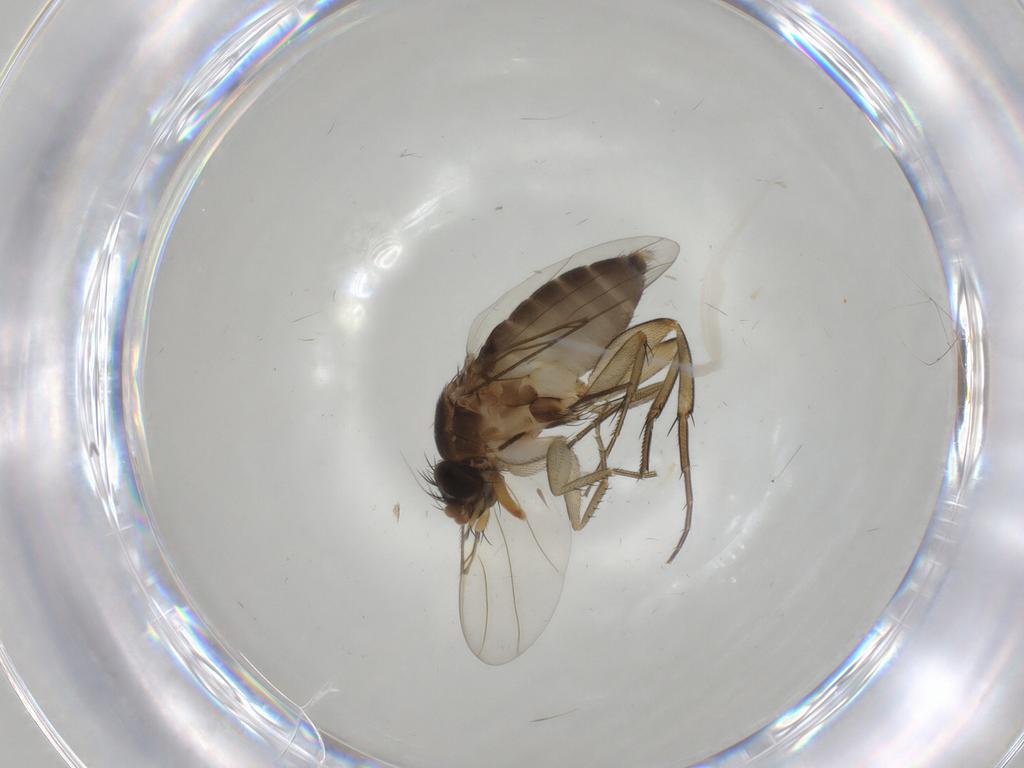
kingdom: Animalia
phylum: Arthropoda
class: Insecta
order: Diptera
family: Phoridae
